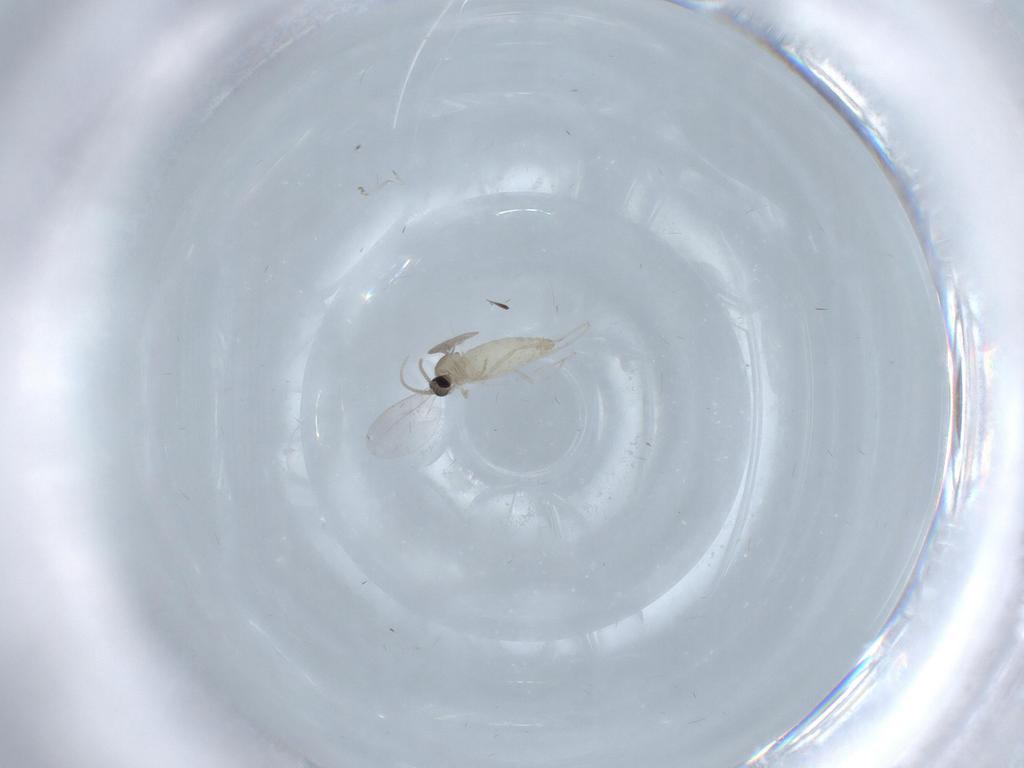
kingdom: Animalia
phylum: Arthropoda
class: Insecta
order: Diptera
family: Cecidomyiidae
